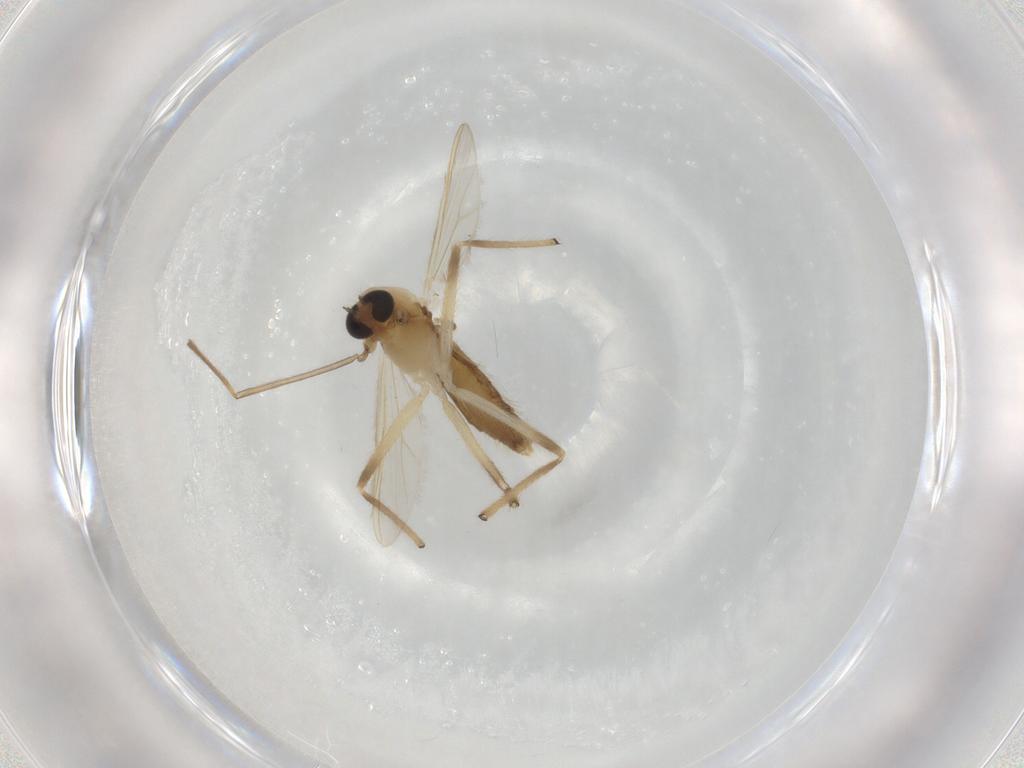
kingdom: Animalia
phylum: Arthropoda
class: Insecta
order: Diptera
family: Chironomidae
